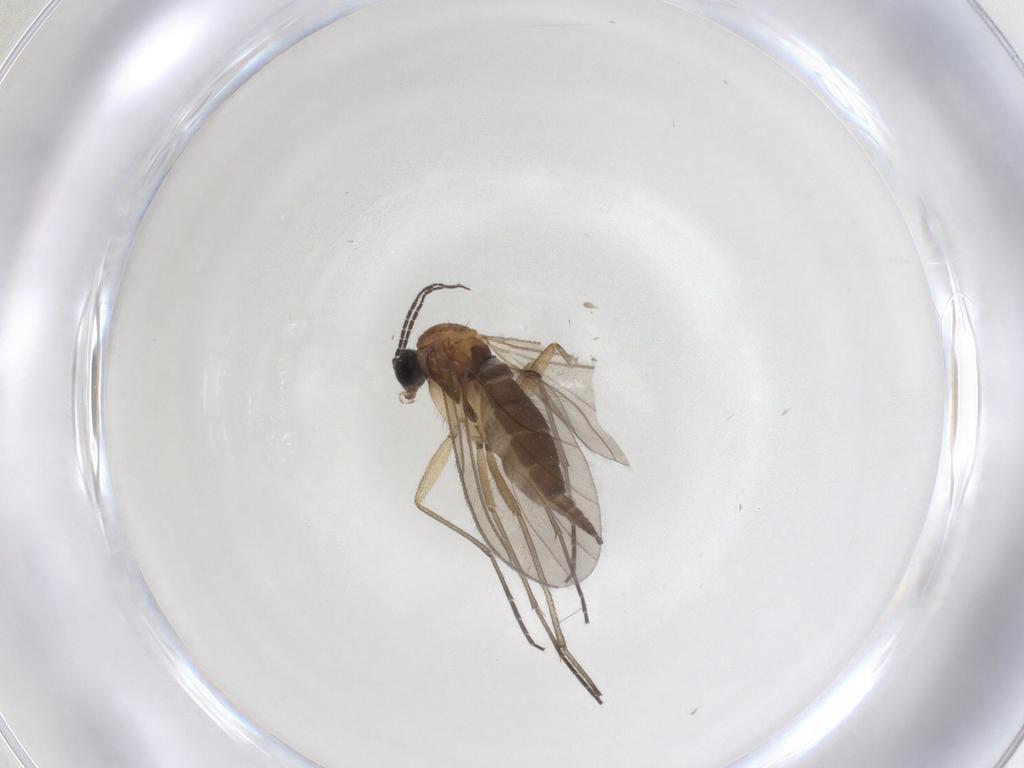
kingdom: Animalia
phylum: Arthropoda
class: Insecta
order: Diptera
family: Sciaridae
